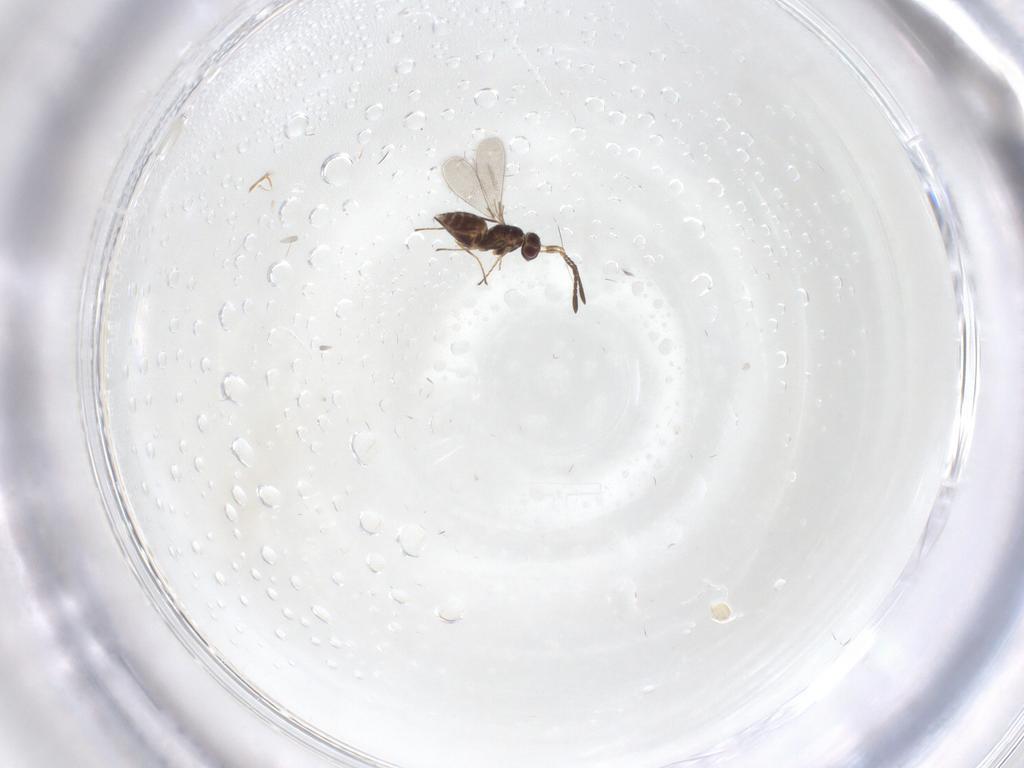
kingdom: Animalia
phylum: Arthropoda
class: Insecta
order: Hymenoptera
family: Mymaridae
